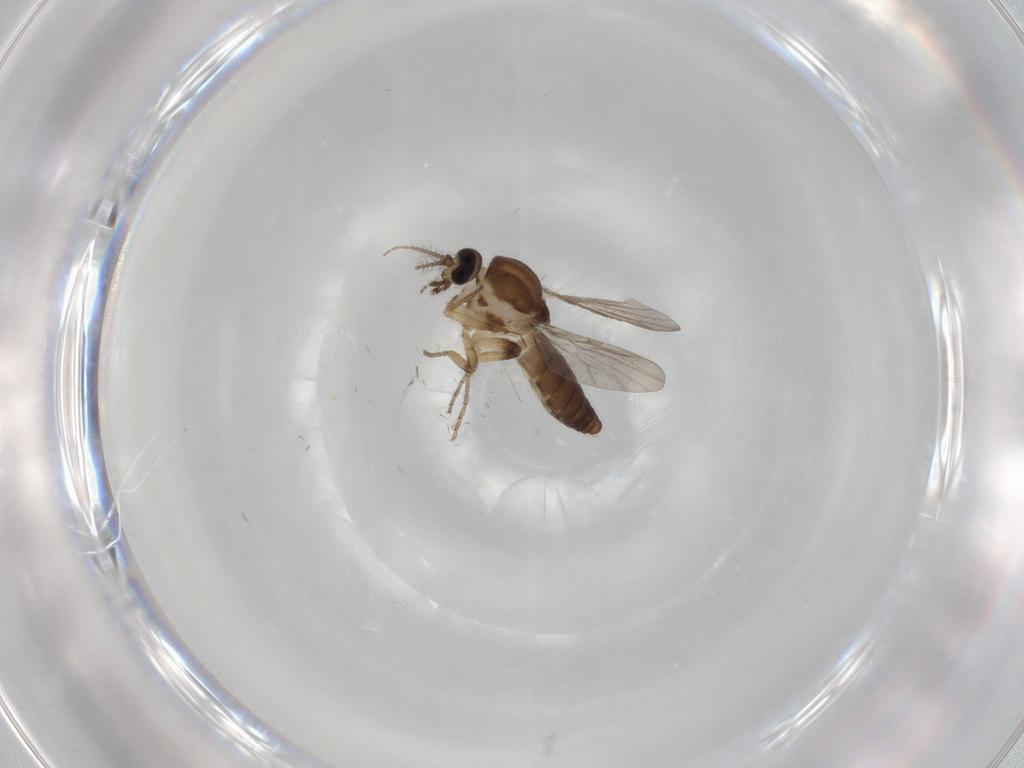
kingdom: Animalia
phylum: Arthropoda
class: Insecta
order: Diptera
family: Ceratopogonidae
